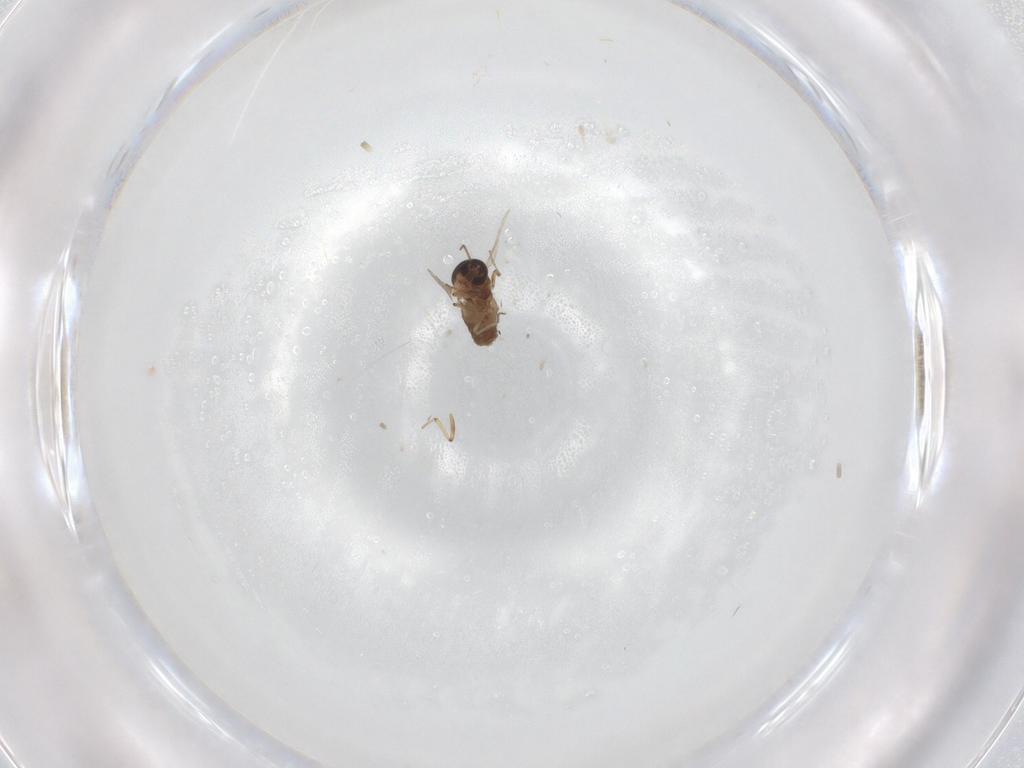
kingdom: Animalia
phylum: Arthropoda
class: Insecta
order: Diptera
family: Ceratopogonidae
